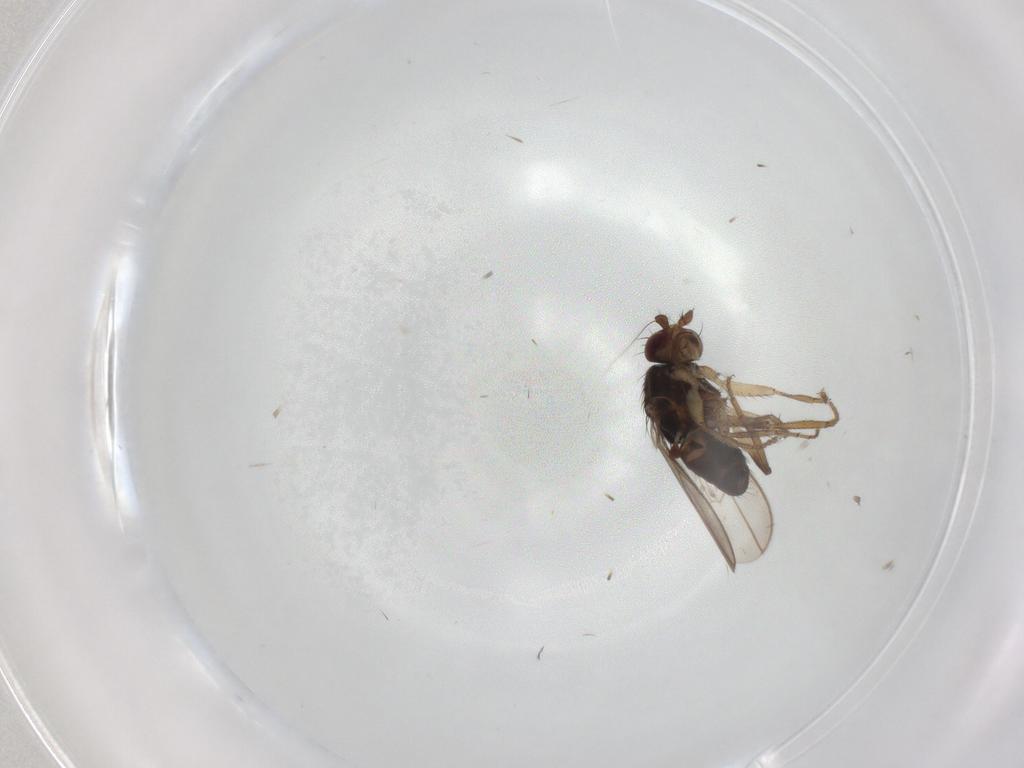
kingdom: Animalia
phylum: Arthropoda
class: Insecta
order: Diptera
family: Sphaeroceridae
